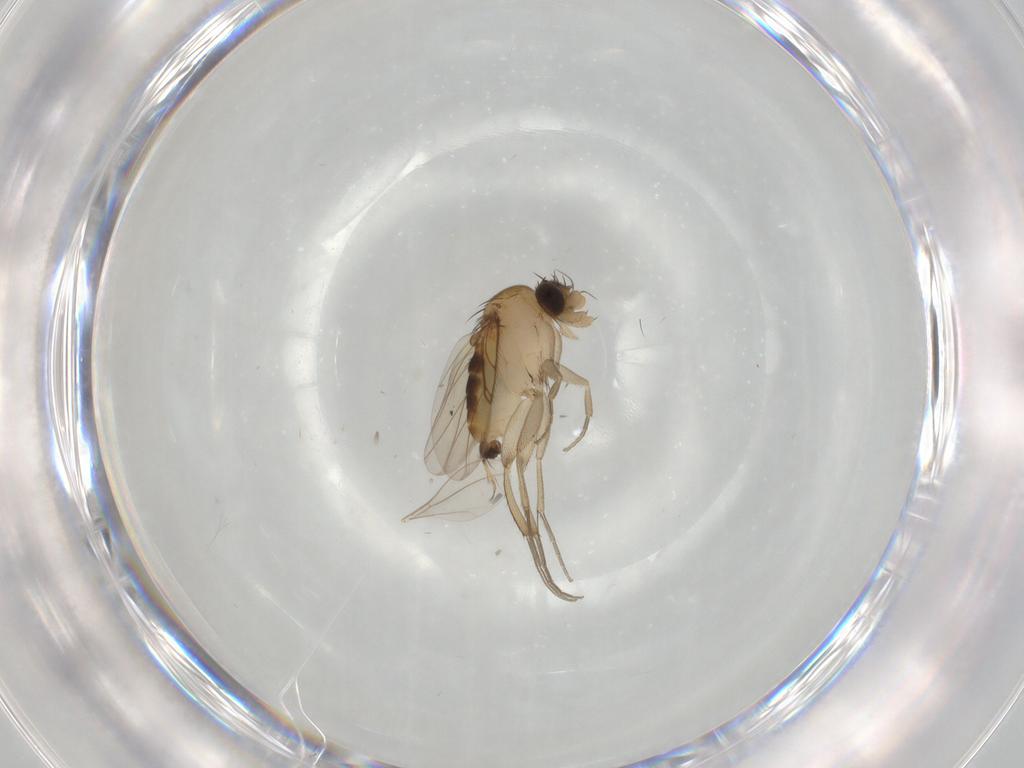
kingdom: Animalia
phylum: Arthropoda
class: Insecta
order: Diptera
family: Phoridae
